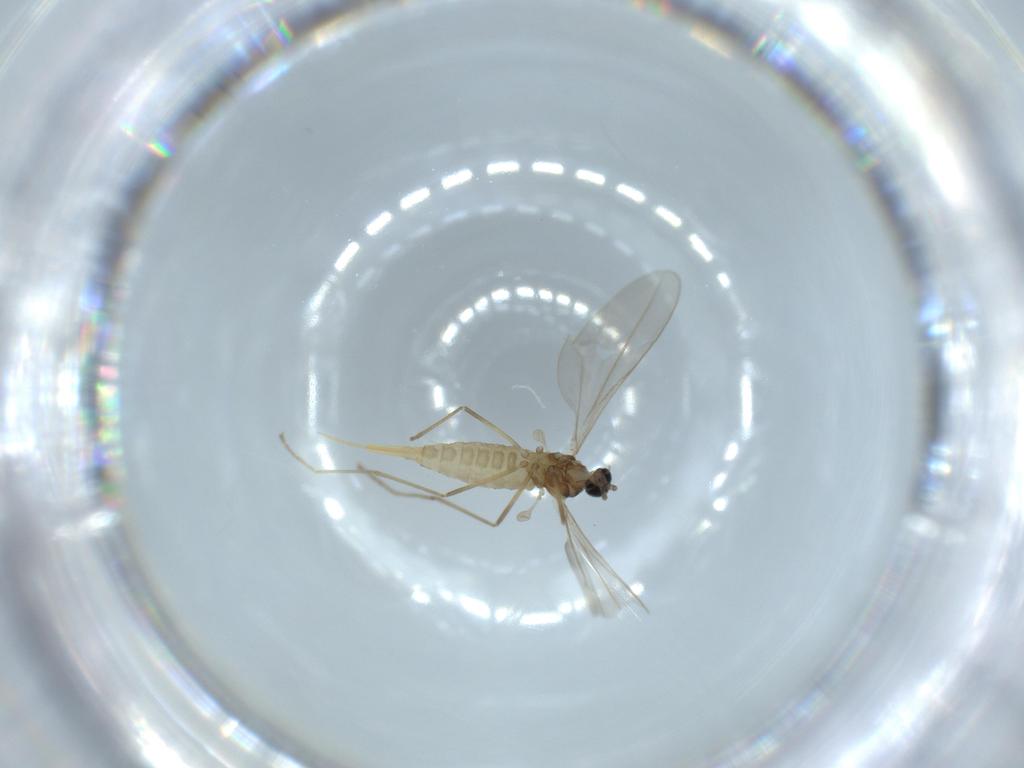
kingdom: Animalia
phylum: Arthropoda
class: Insecta
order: Diptera
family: Cecidomyiidae
